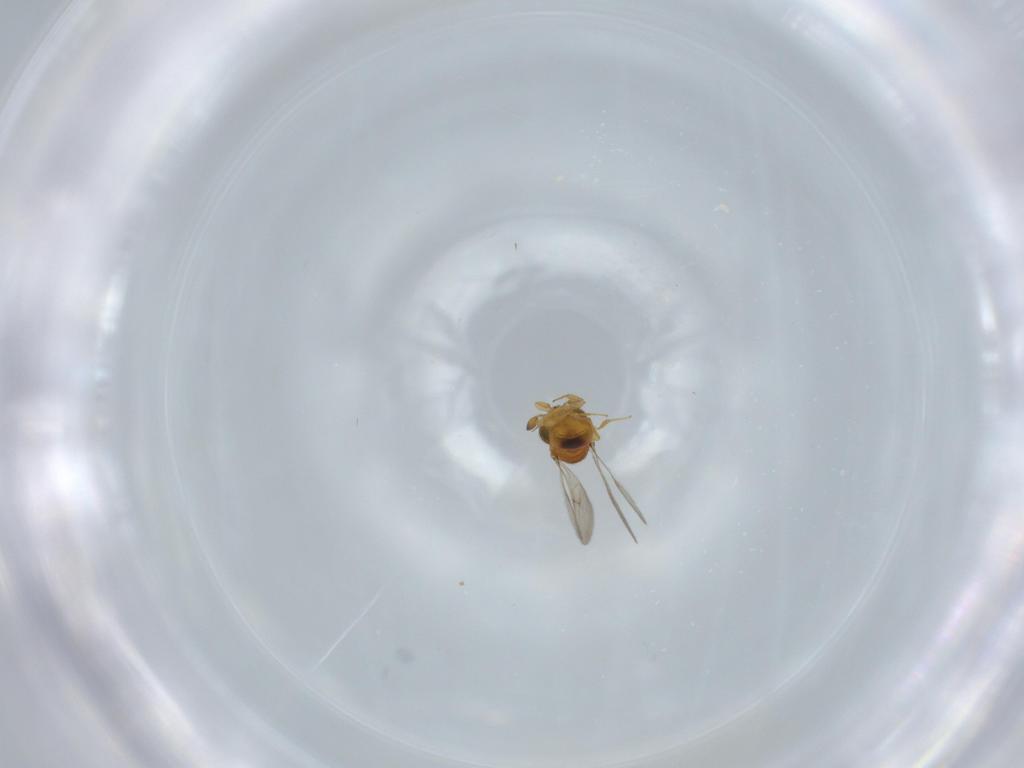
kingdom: Animalia
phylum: Arthropoda
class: Insecta
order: Hymenoptera
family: Scelionidae
